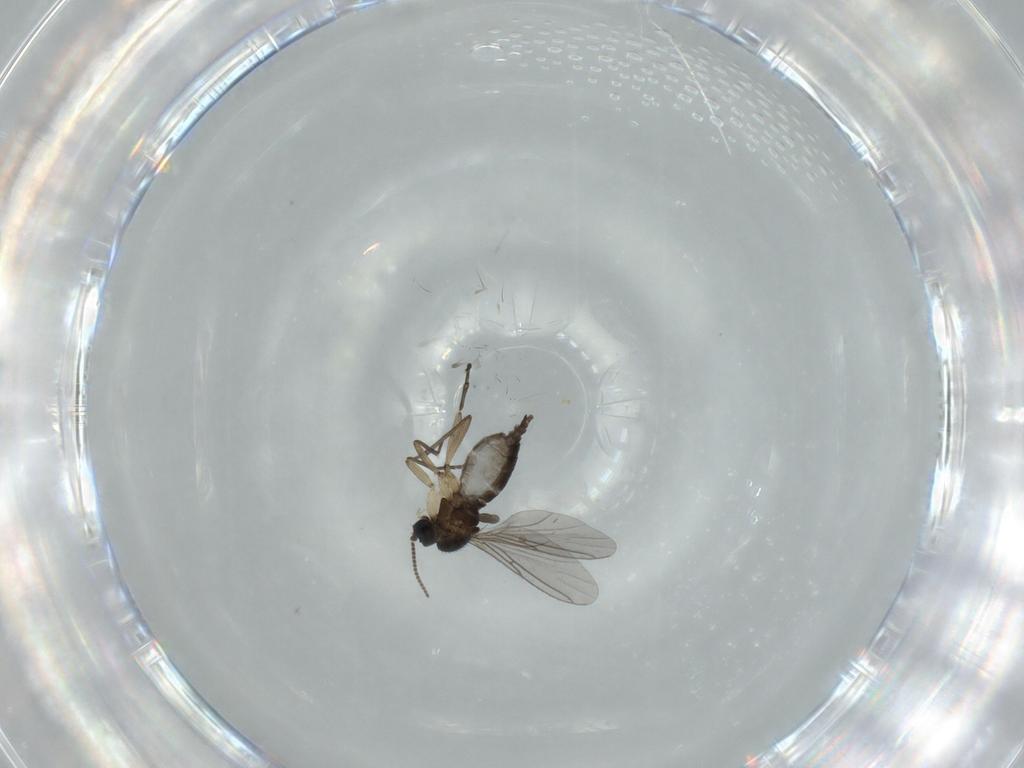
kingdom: Animalia
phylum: Arthropoda
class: Insecta
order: Diptera
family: Sciaridae
